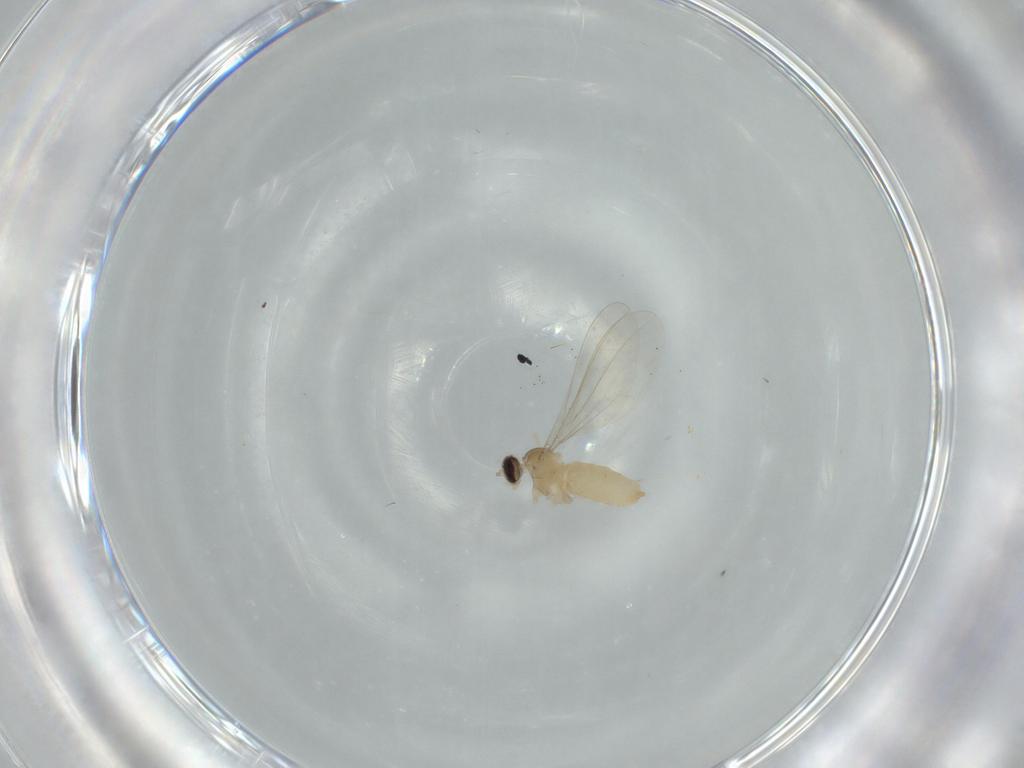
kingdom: Animalia
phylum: Arthropoda
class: Insecta
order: Diptera
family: Cecidomyiidae
